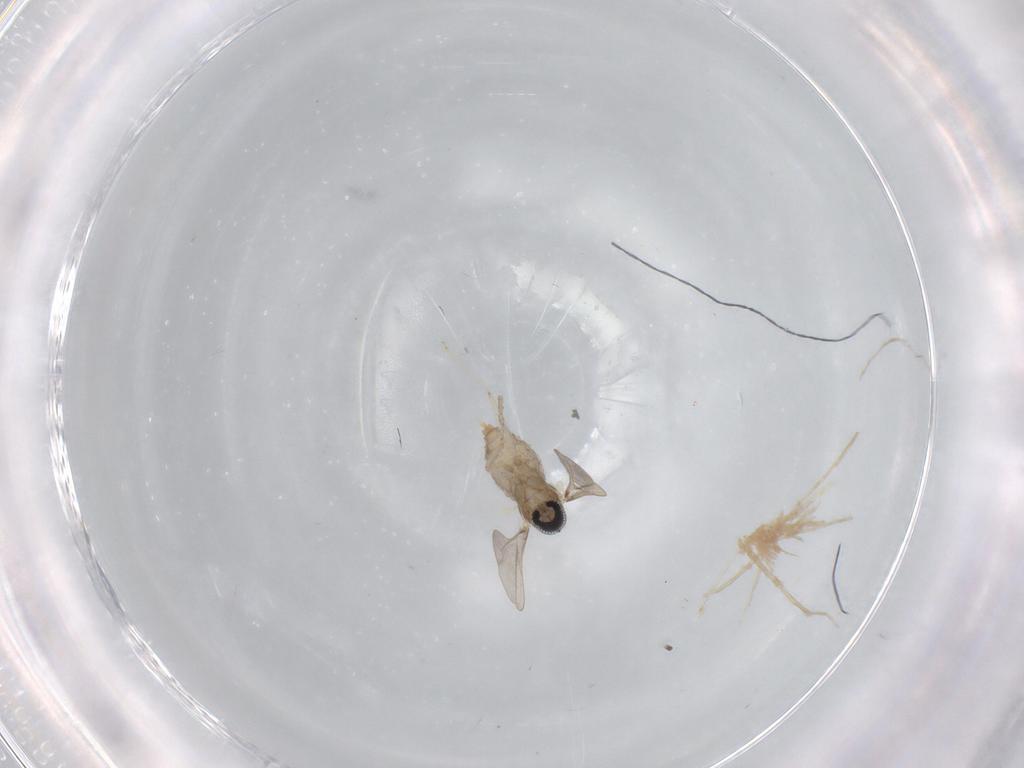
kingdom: Animalia
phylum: Arthropoda
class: Insecta
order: Diptera
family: Cecidomyiidae
